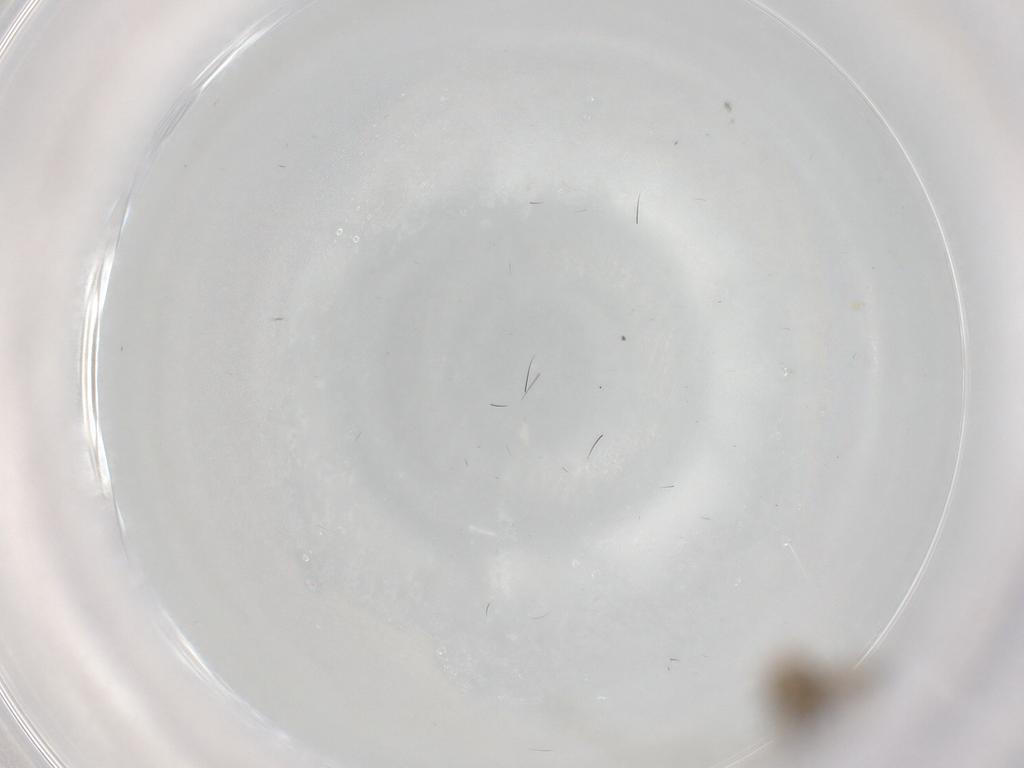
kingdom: Animalia
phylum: Arthropoda
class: Insecta
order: Diptera
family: Cecidomyiidae
